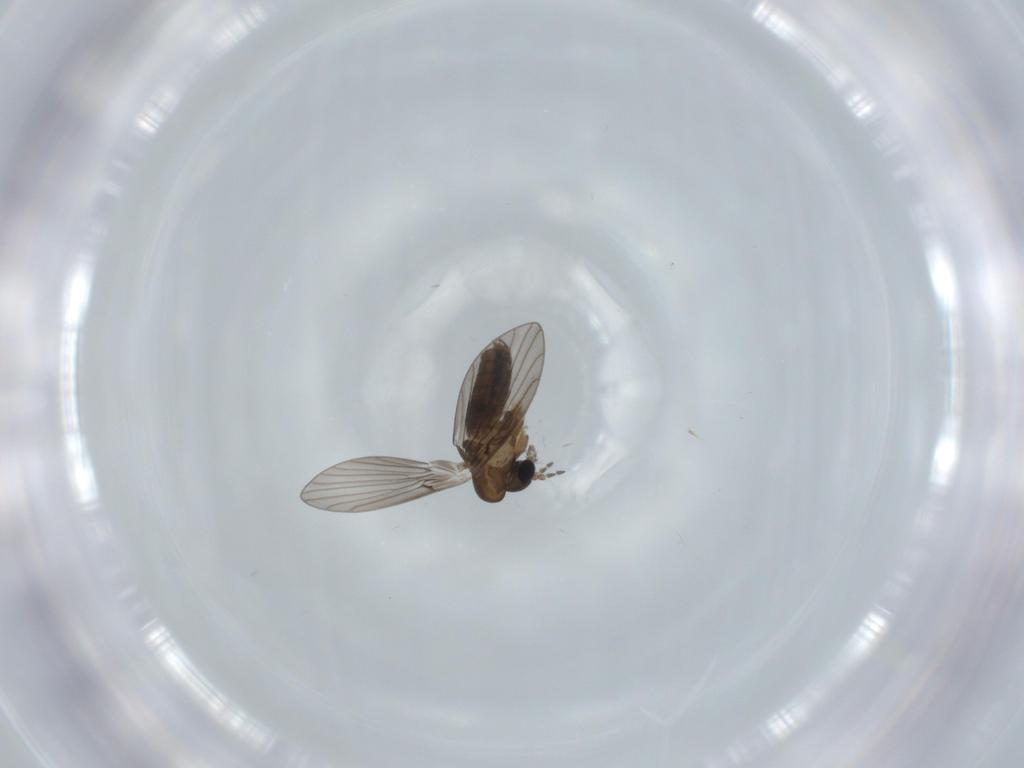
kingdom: Animalia
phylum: Arthropoda
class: Insecta
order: Diptera
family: Psychodidae
